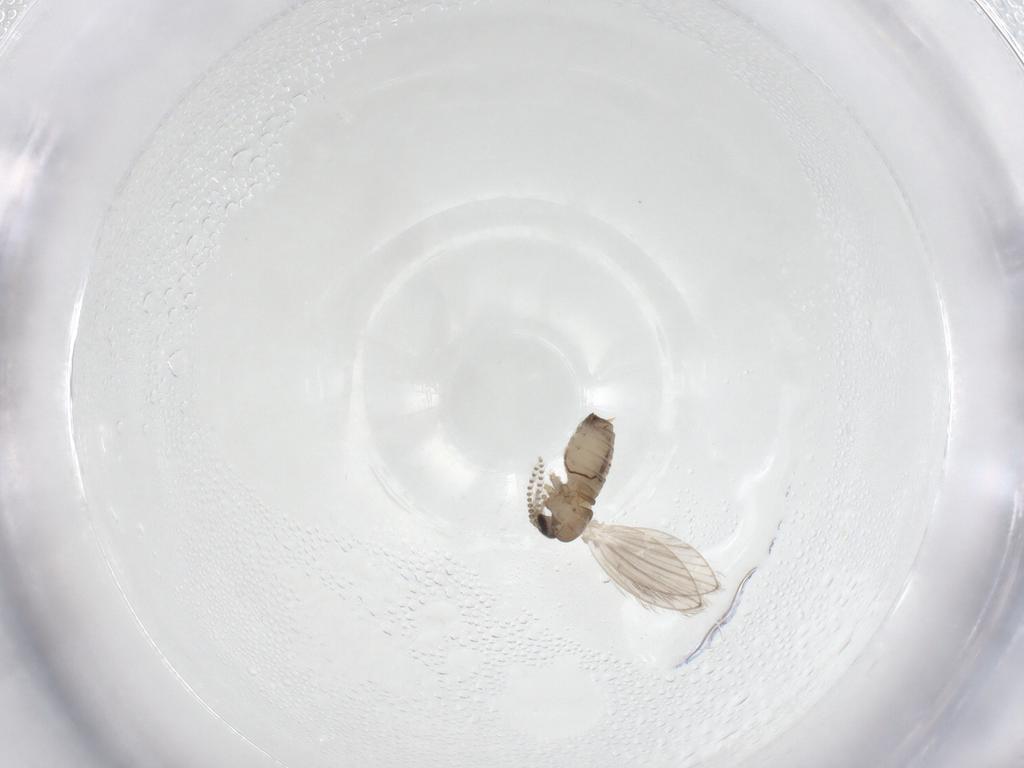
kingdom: Animalia
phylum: Arthropoda
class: Insecta
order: Diptera
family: Psychodidae
